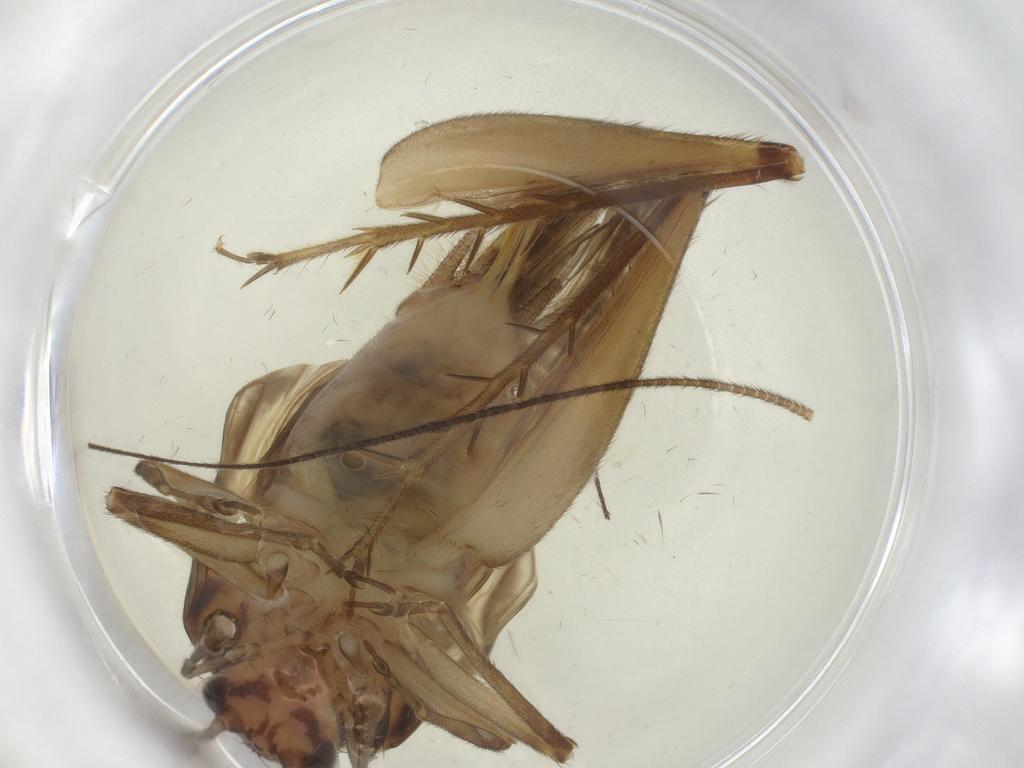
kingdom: Animalia
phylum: Arthropoda
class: Insecta
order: Orthoptera
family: Trigonidiidae
